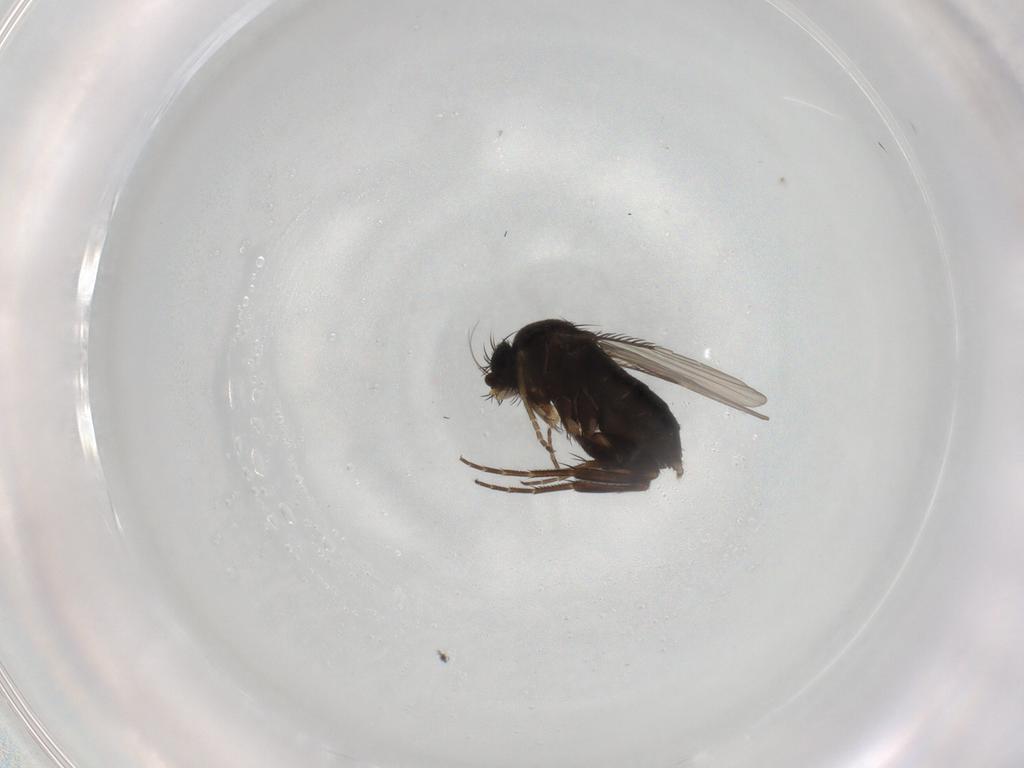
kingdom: Animalia
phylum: Arthropoda
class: Insecta
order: Diptera
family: Phoridae
